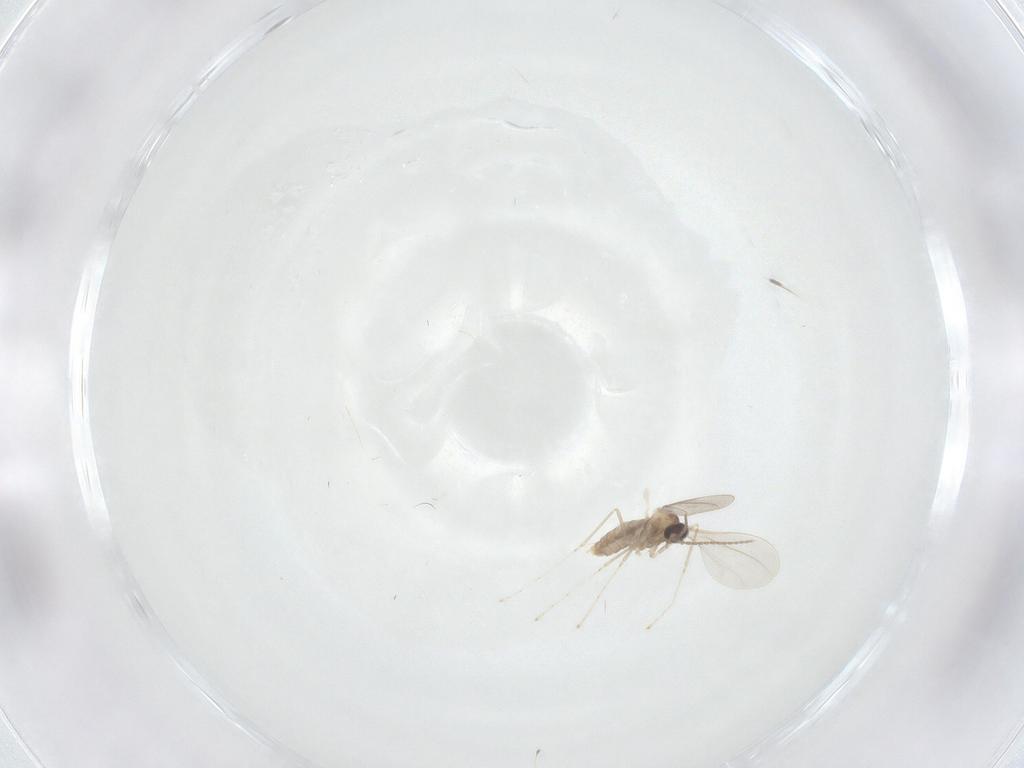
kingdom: Animalia
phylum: Arthropoda
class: Insecta
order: Diptera
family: Cecidomyiidae
